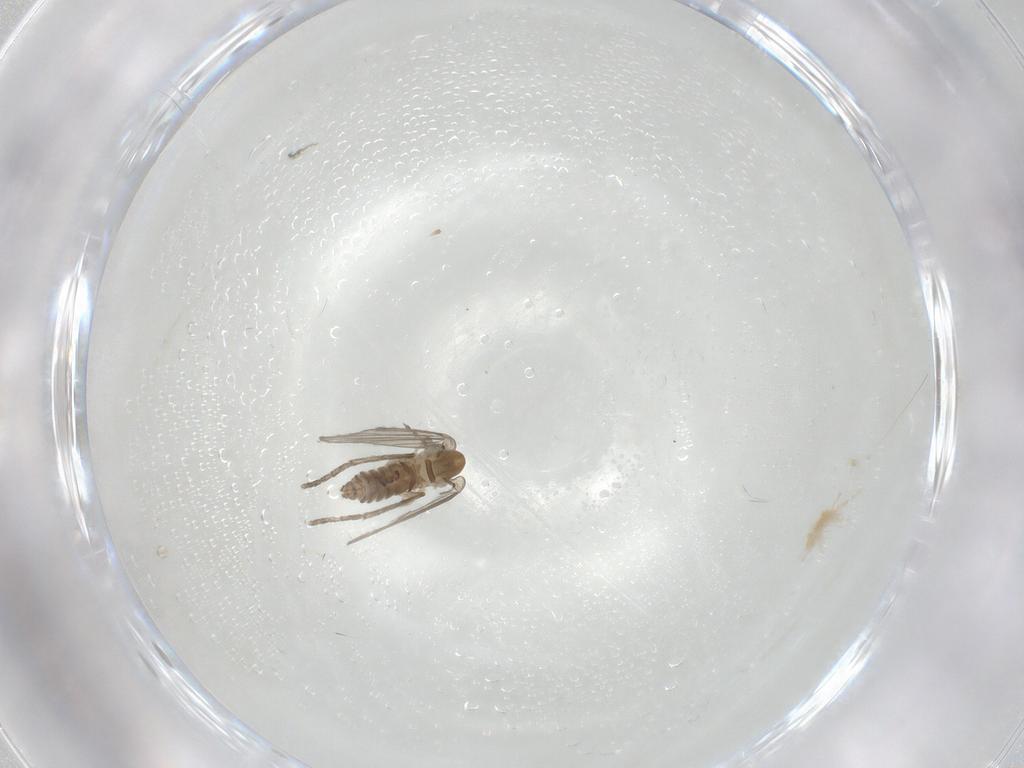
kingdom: Animalia
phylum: Arthropoda
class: Insecta
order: Diptera
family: Psychodidae
